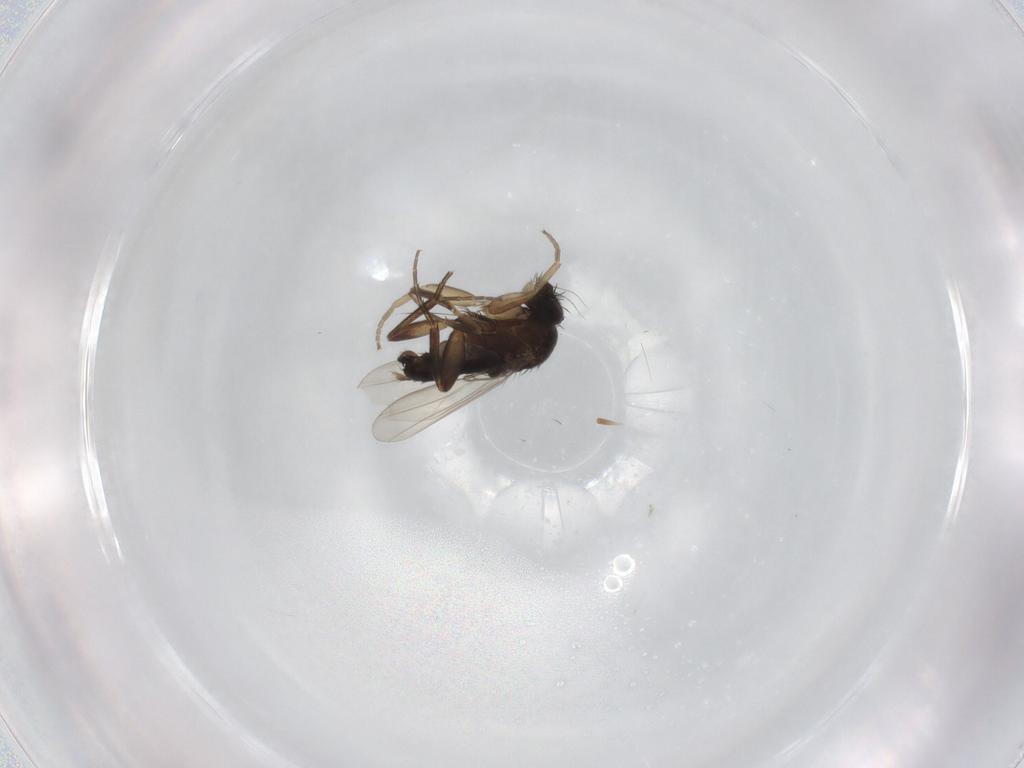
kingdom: Animalia
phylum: Arthropoda
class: Insecta
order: Diptera
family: Phoridae
